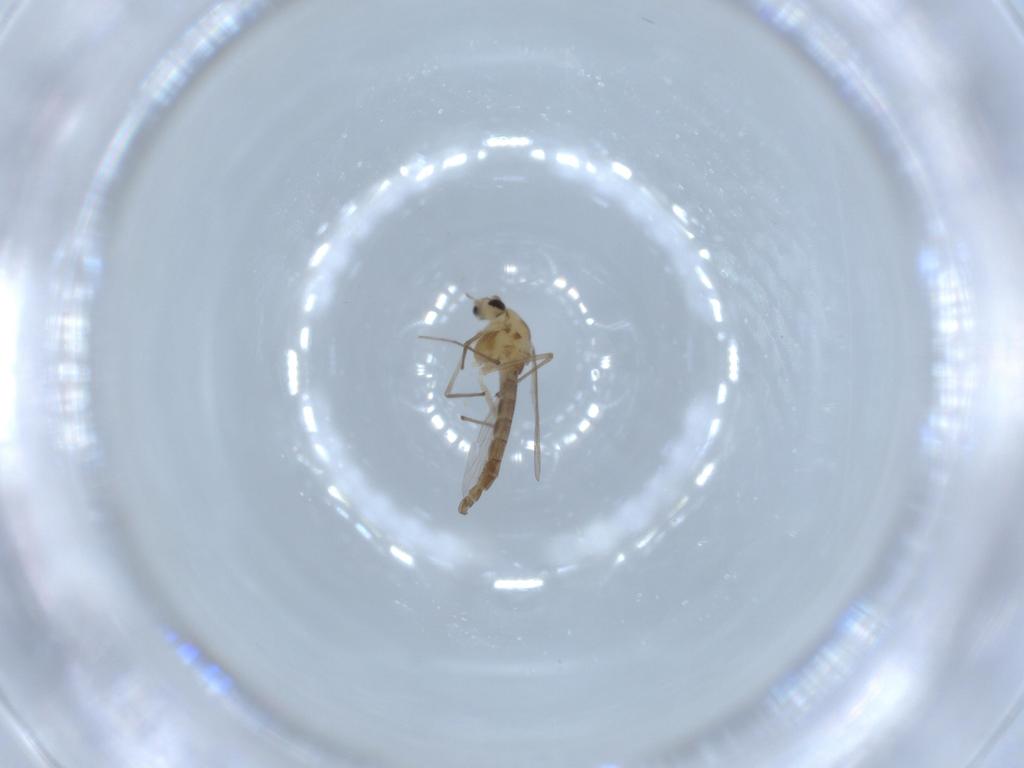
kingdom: Animalia
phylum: Arthropoda
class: Insecta
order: Diptera
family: Chironomidae
